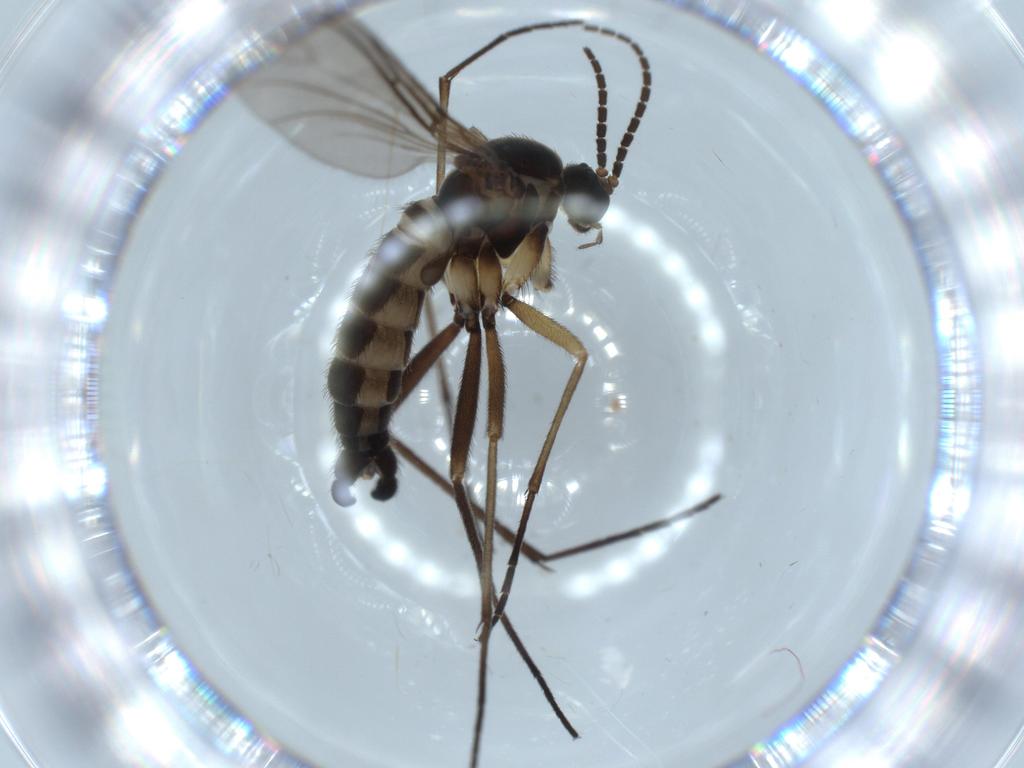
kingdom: Animalia
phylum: Arthropoda
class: Insecta
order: Diptera
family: Sciaridae
